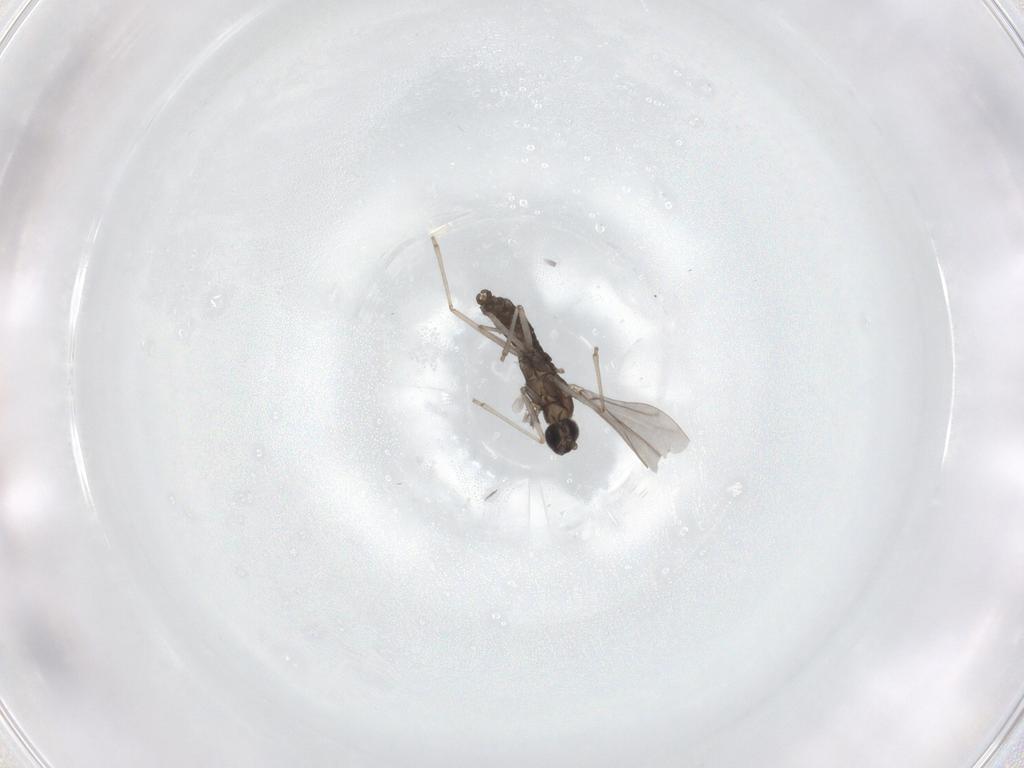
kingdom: Animalia
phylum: Arthropoda
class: Insecta
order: Diptera
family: Cecidomyiidae
